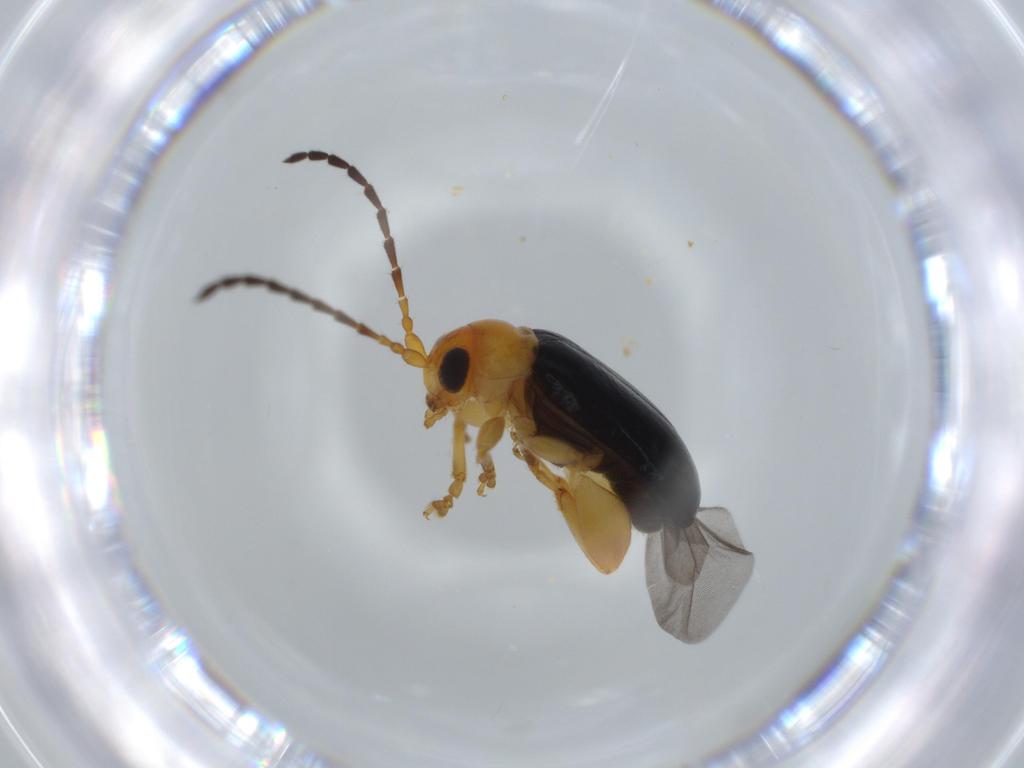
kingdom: Animalia
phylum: Arthropoda
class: Insecta
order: Coleoptera
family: Chrysomelidae
